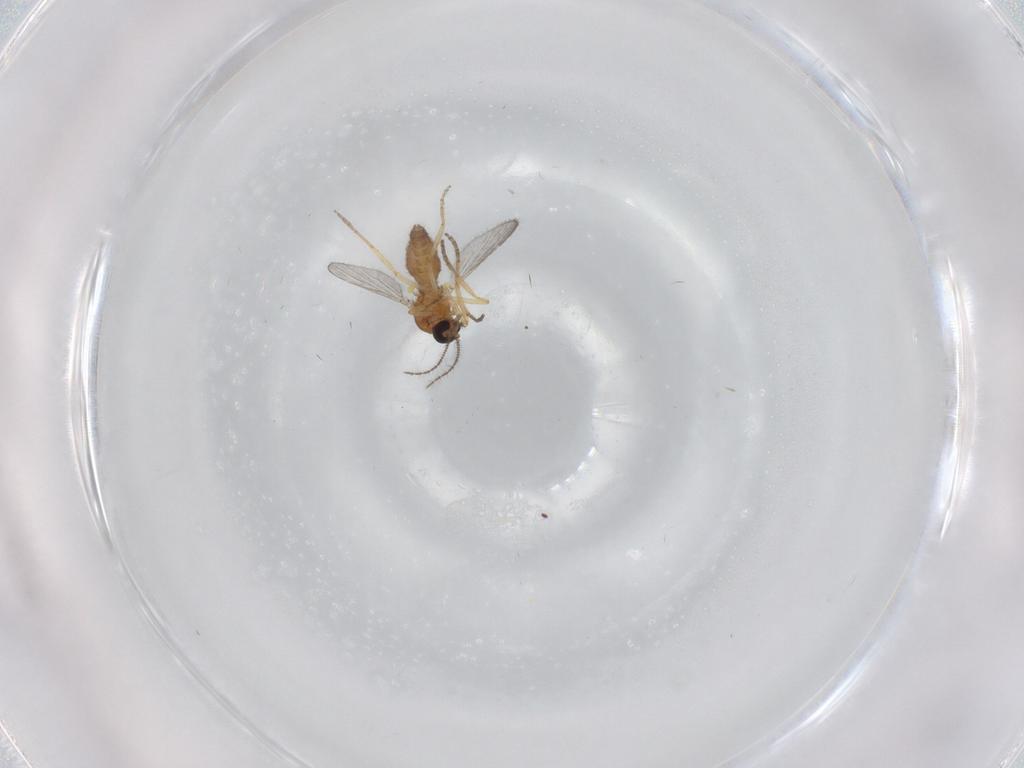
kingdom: Animalia
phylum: Arthropoda
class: Insecta
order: Diptera
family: Ceratopogonidae
